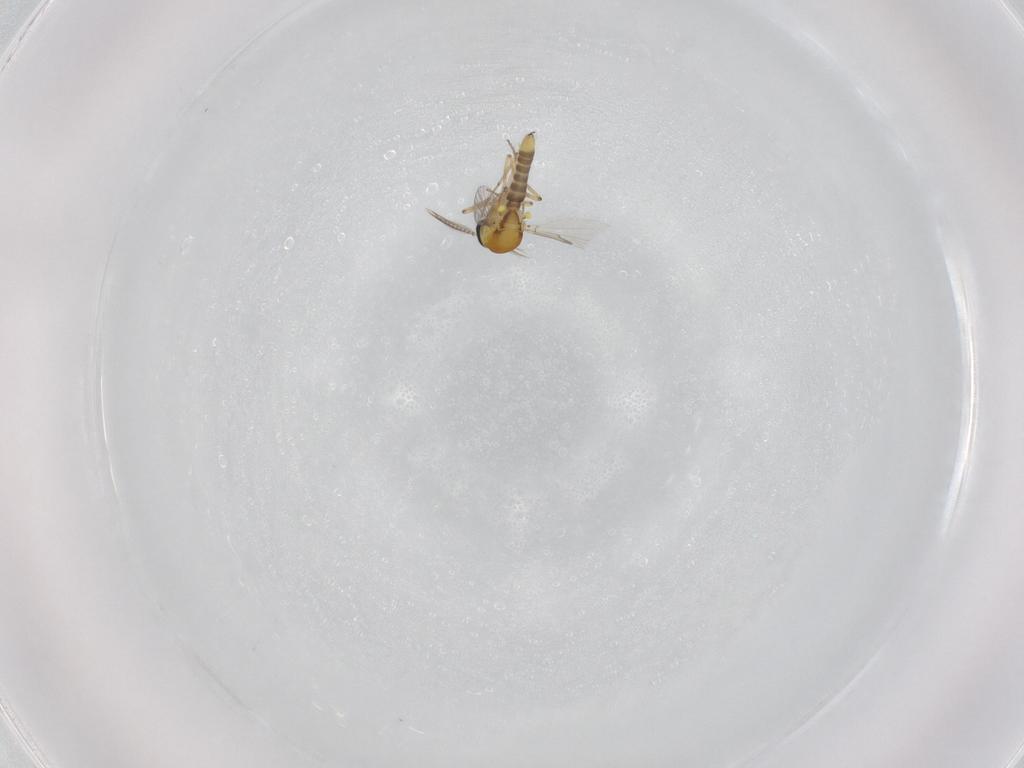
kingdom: Animalia
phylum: Arthropoda
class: Insecta
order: Diptera
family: Ceratopogonidae
